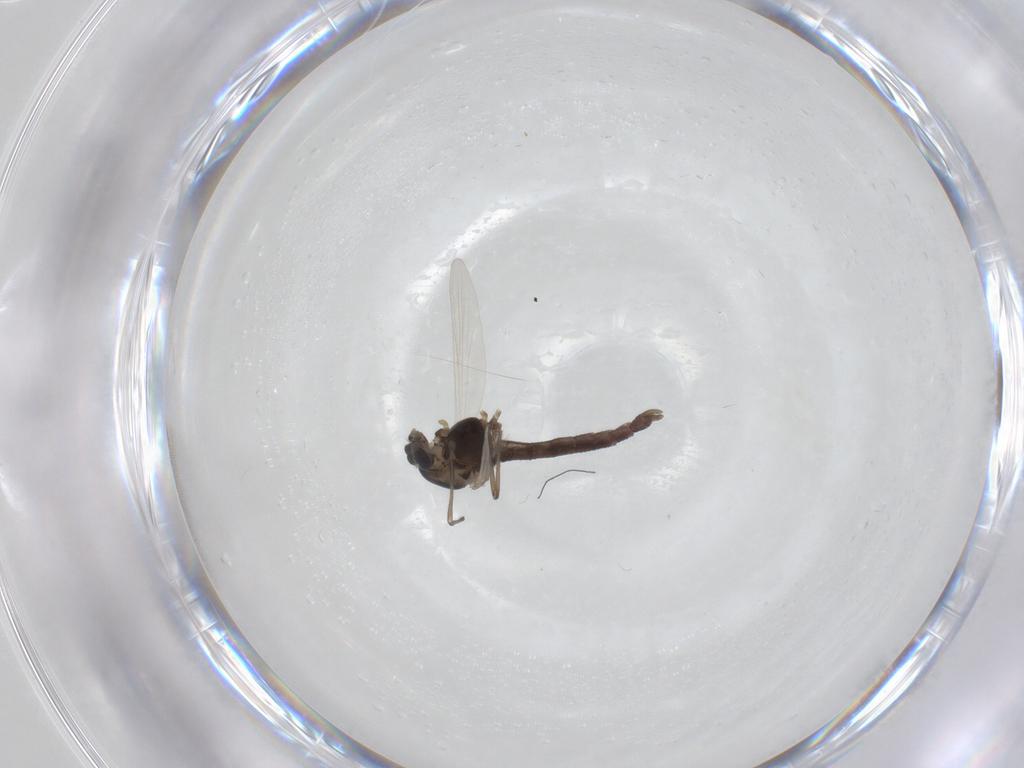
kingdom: Animalia
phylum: Arthropoda
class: Insecta
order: Diptera
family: Chironomidae
